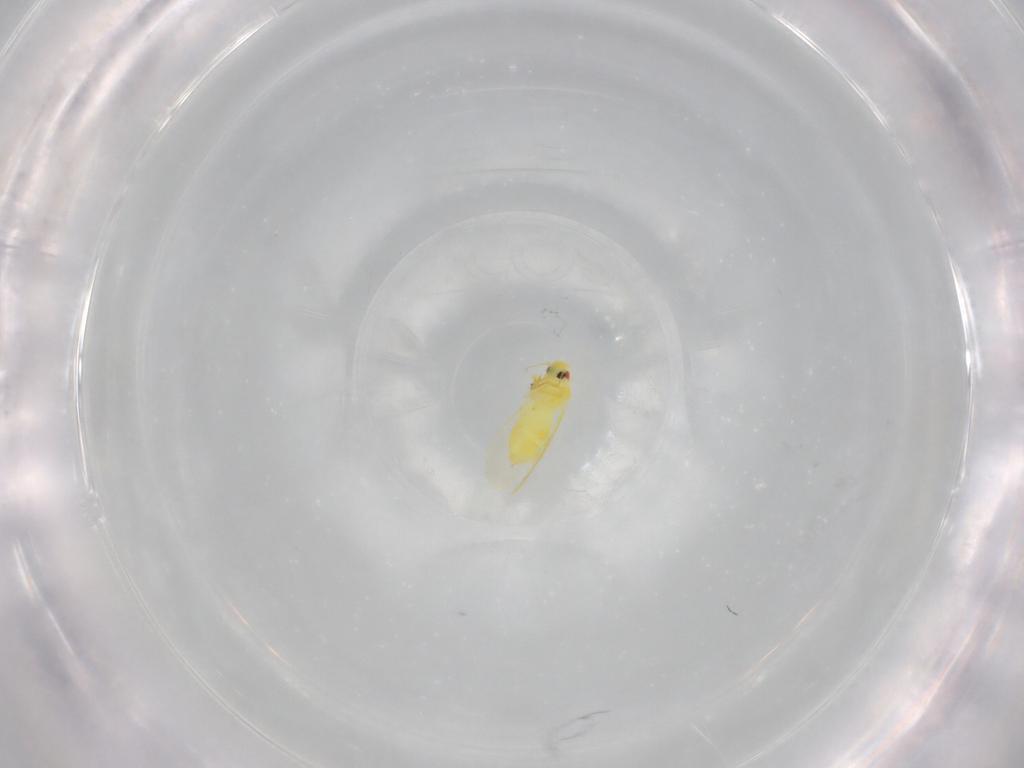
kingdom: Animalia
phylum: Arthropoda
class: Insecta
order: Hemiptera
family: Aleyrodidae
